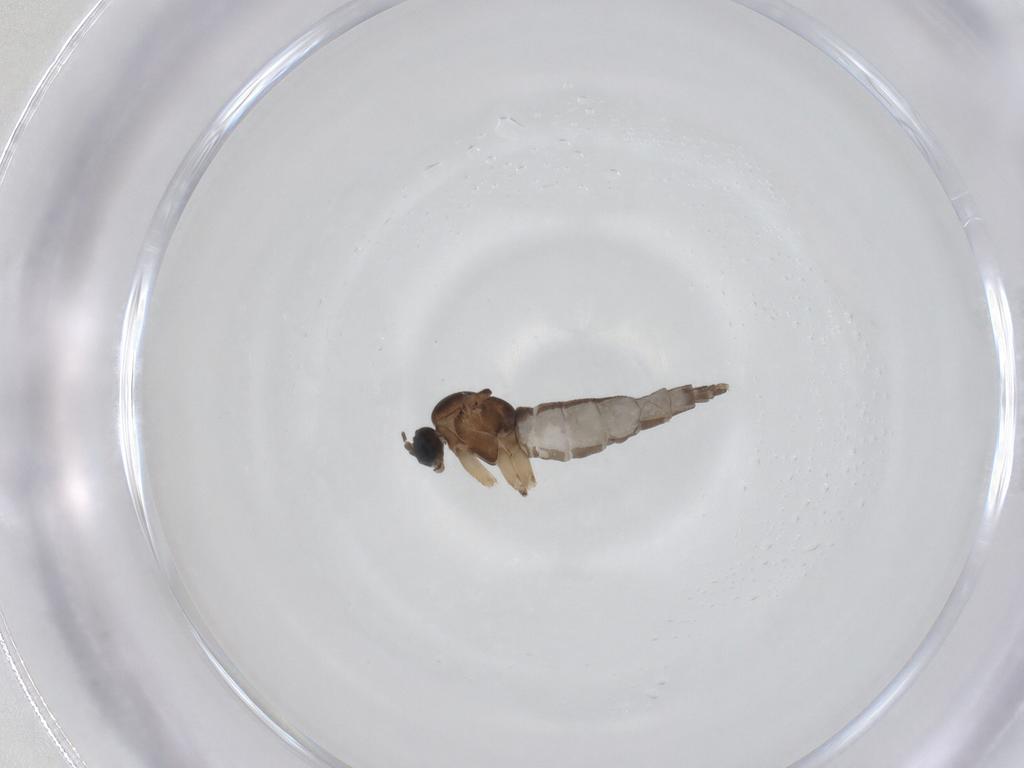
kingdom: Animalia
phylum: Arthropoda
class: Insecta
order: Diptera
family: Sciaridae
